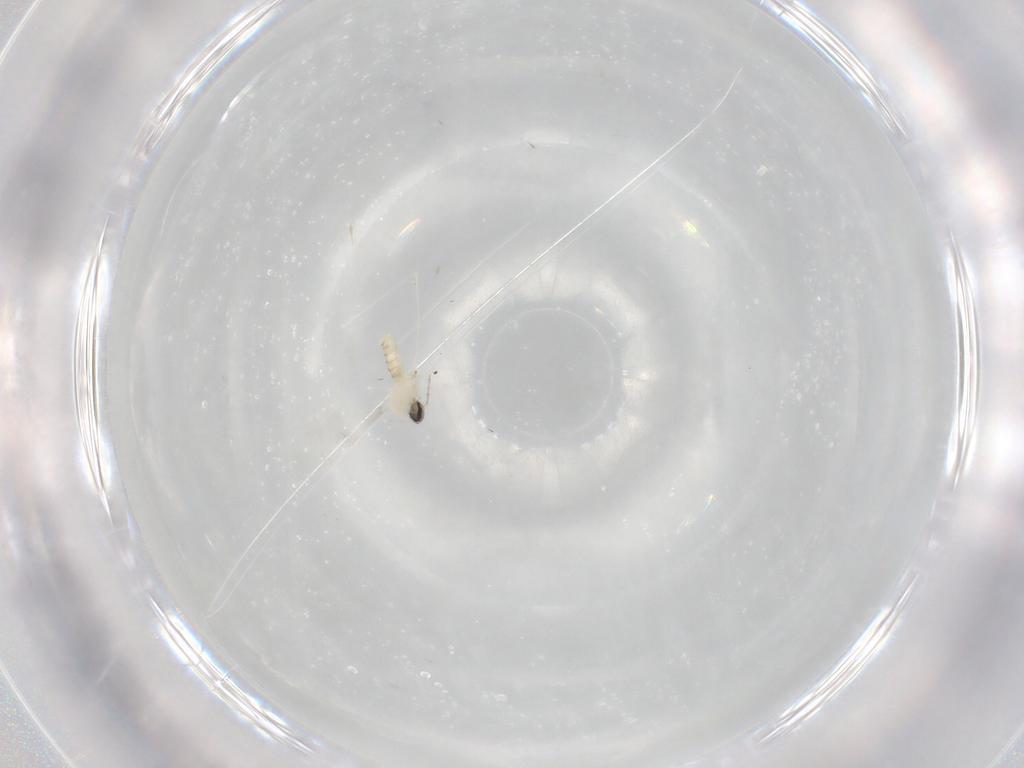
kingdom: Animalia
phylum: Arthropoda
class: Insecta
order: Diptera
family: Cecidomyiidae
